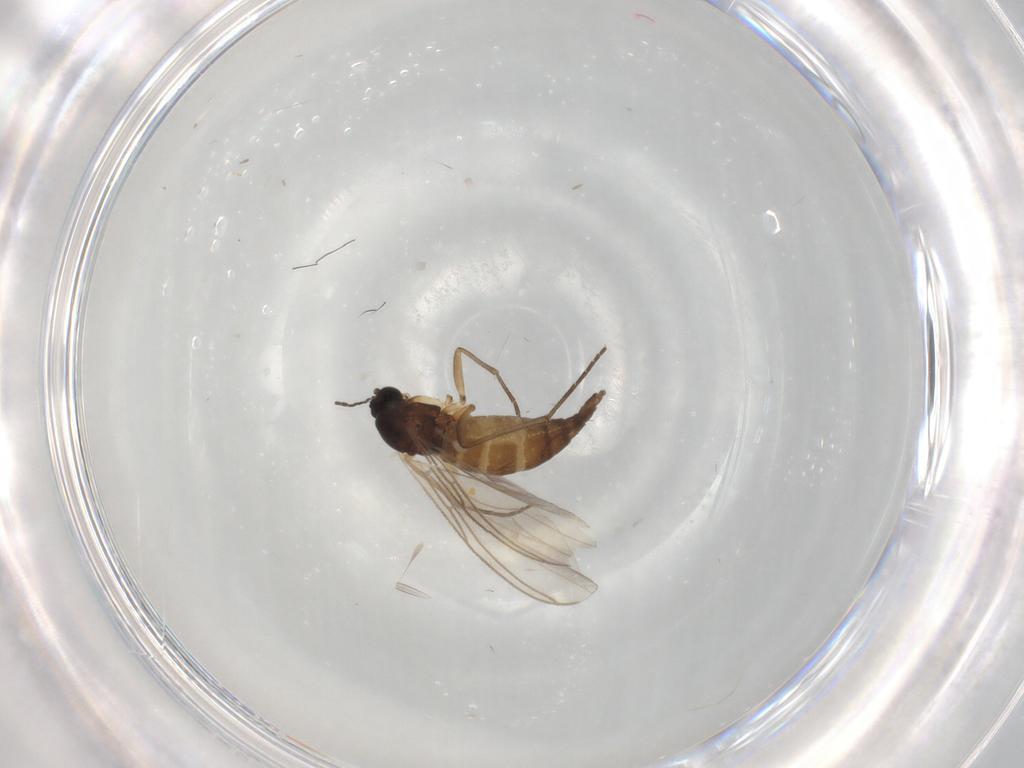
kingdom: Animalia
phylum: Arthropoda
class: Insecta
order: Diptera
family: Sciaridae
